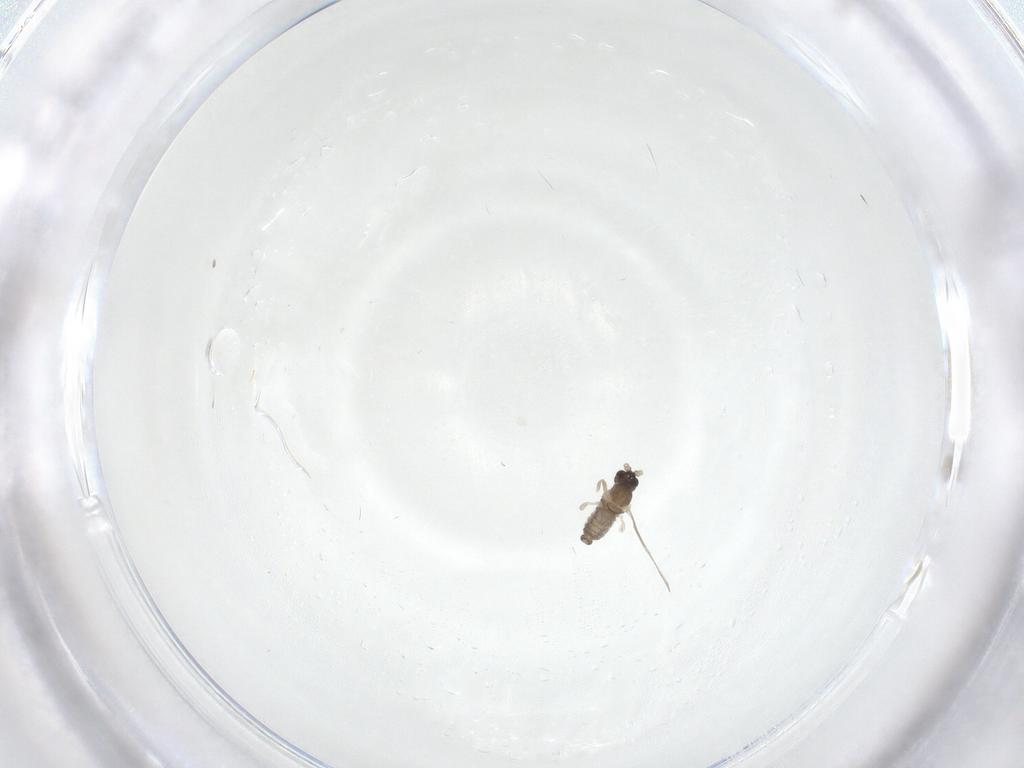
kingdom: Animalia
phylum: Arthropoda
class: Insecta
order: Diptera
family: Cecidomyiidae
